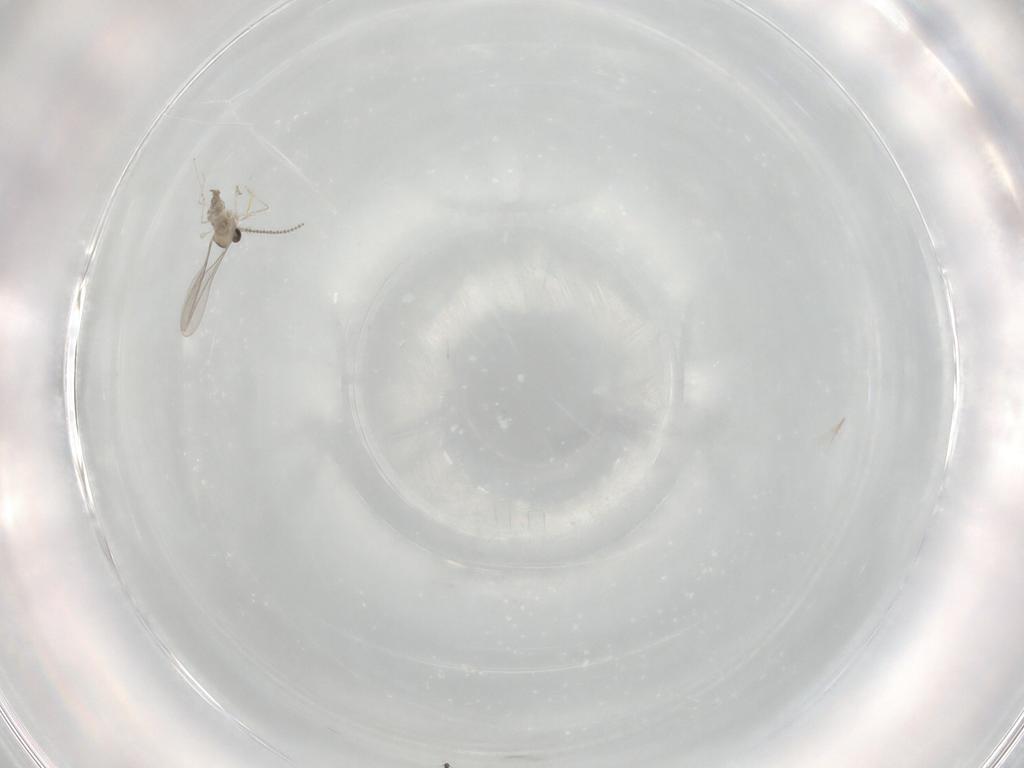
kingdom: Animalia
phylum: Arthropoda
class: Insecta
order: Diptera
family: Cecidomyiidae
